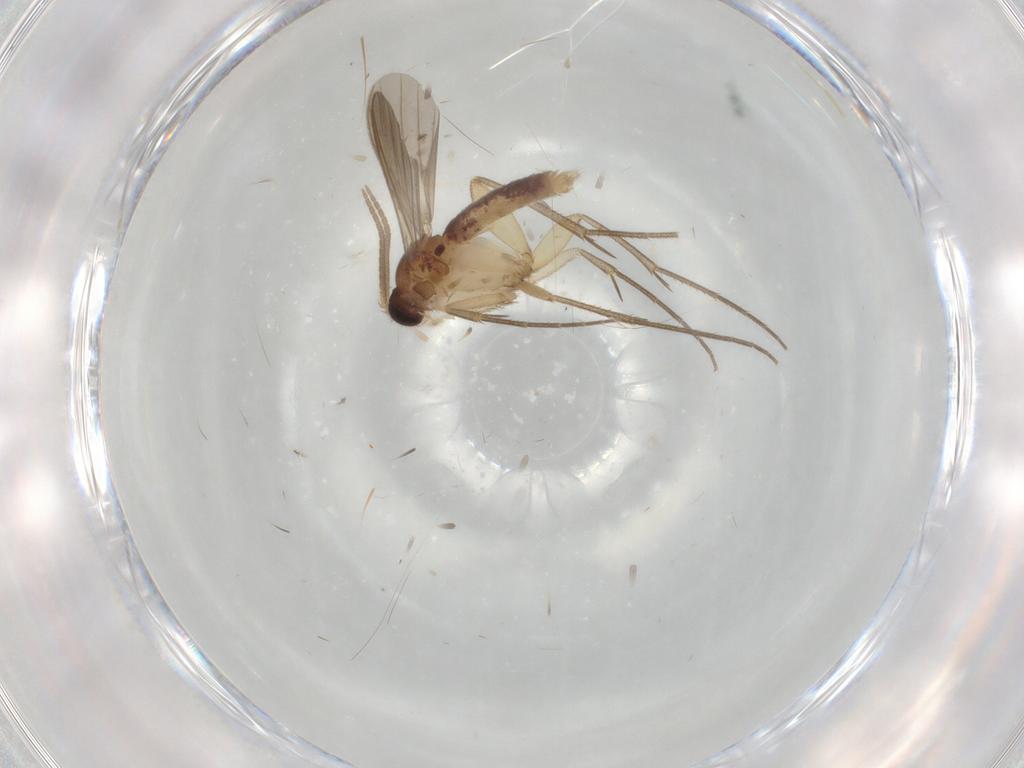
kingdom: Animalia
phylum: Arthropoda
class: Insecta
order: Diptera
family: Mycetophilidae
